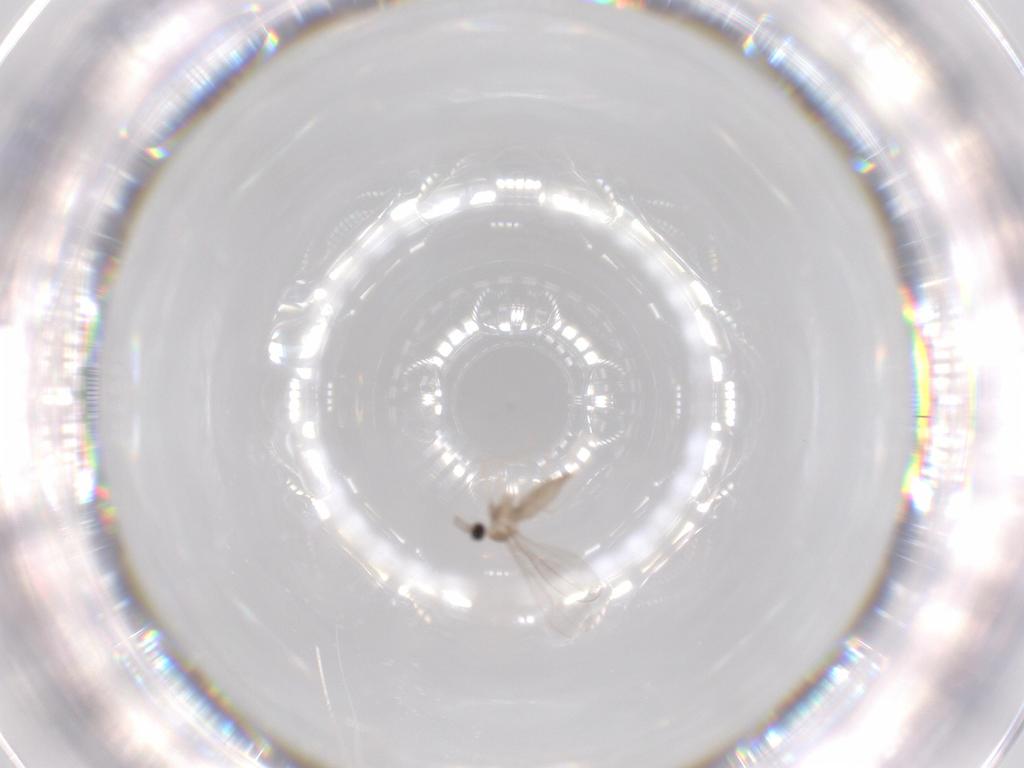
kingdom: Animalia
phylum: Arthropoda
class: Insecta
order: Diptera
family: Cecidomyiidae
